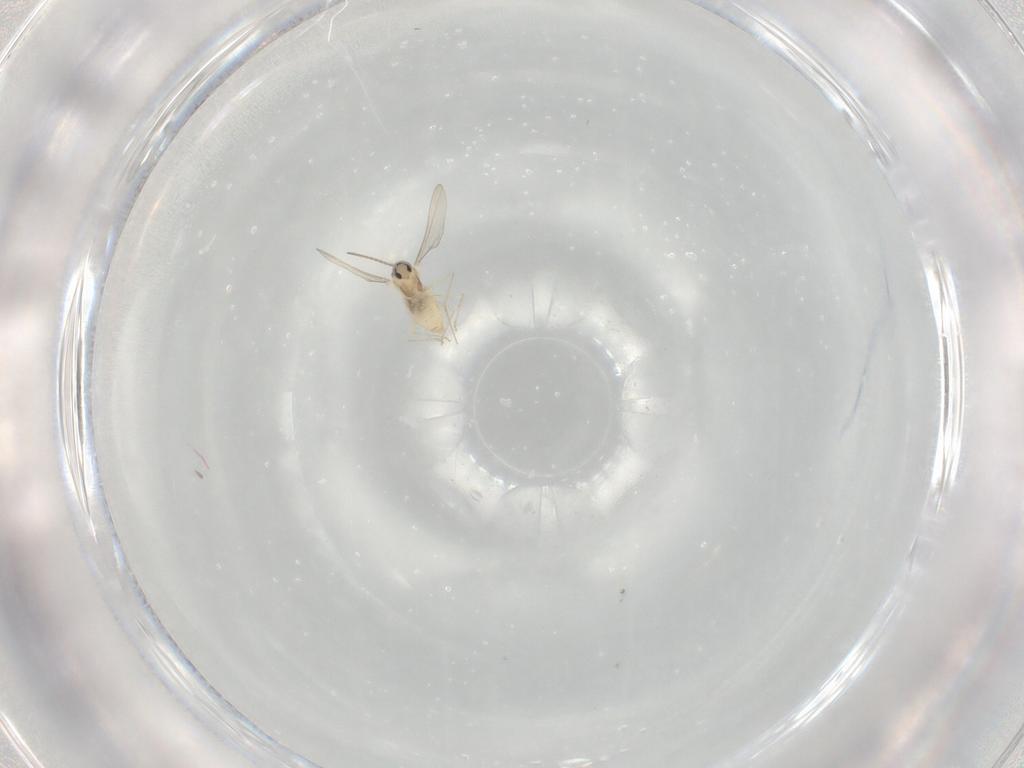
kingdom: Animalia
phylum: Arthropoda
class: Insecta
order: Diptera
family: Cecidomyiidae
